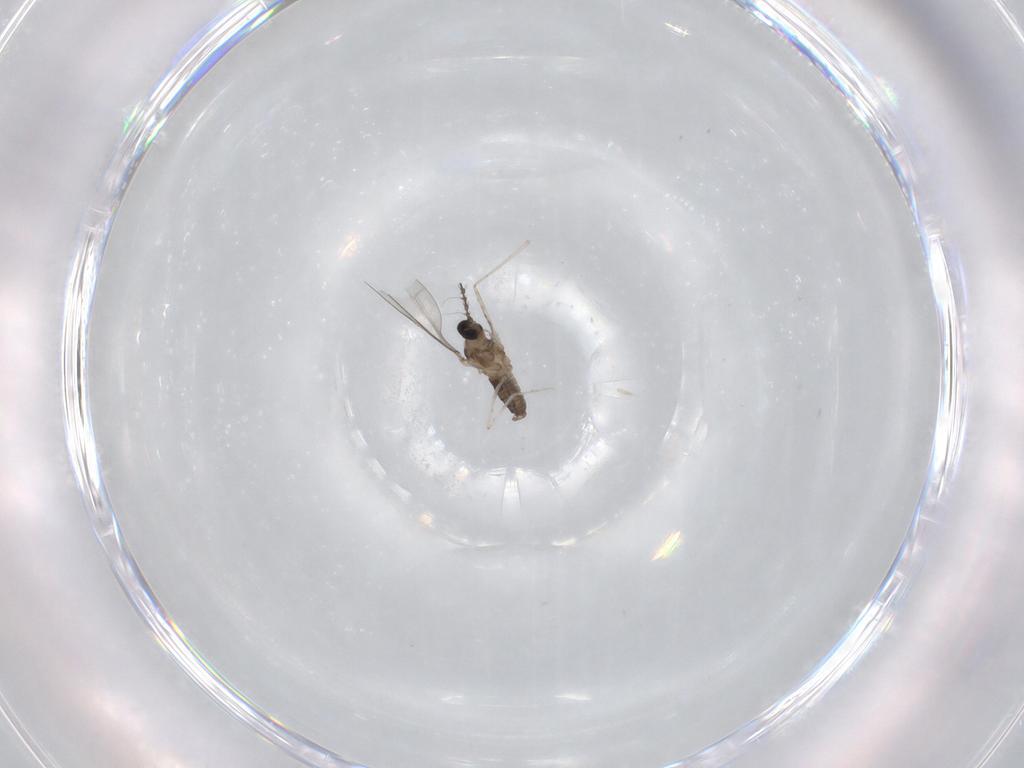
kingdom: Animalia
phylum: Arthropoda
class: Insecta
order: Diptera
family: Cecidomyiidae
